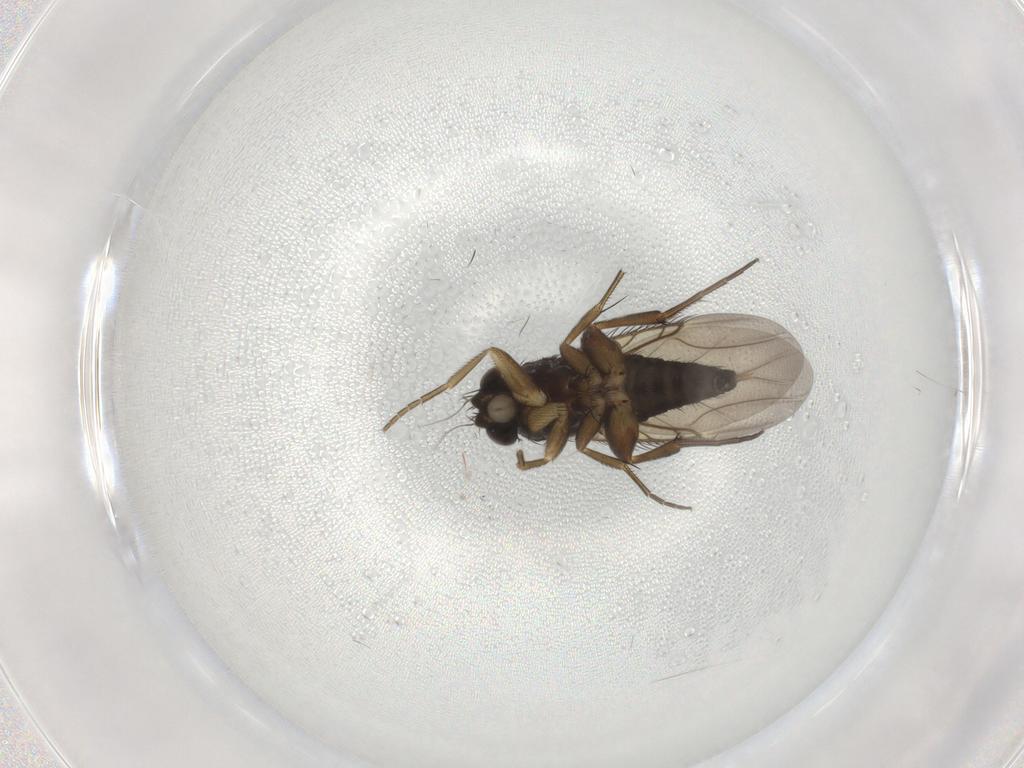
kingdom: Animalia
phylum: Arthropoda
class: Insecta
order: Diptera
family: Phoridae
